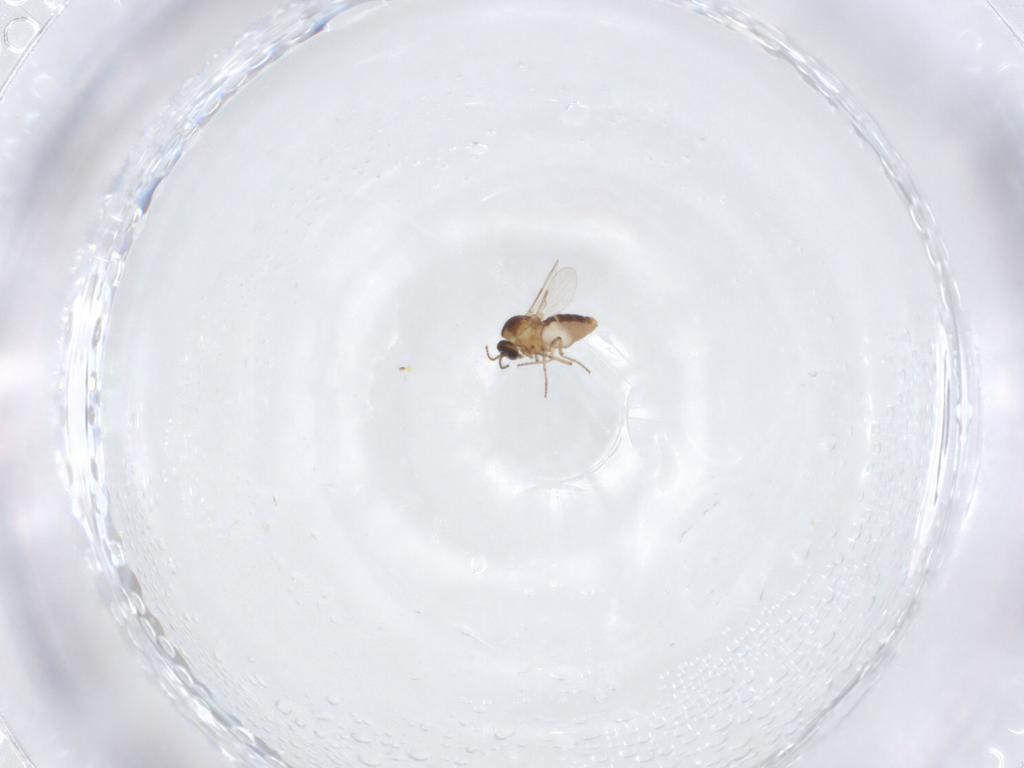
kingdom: Animalia
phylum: Arthropoda
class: Insecta
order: Diptera
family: Ceratopogonidae
